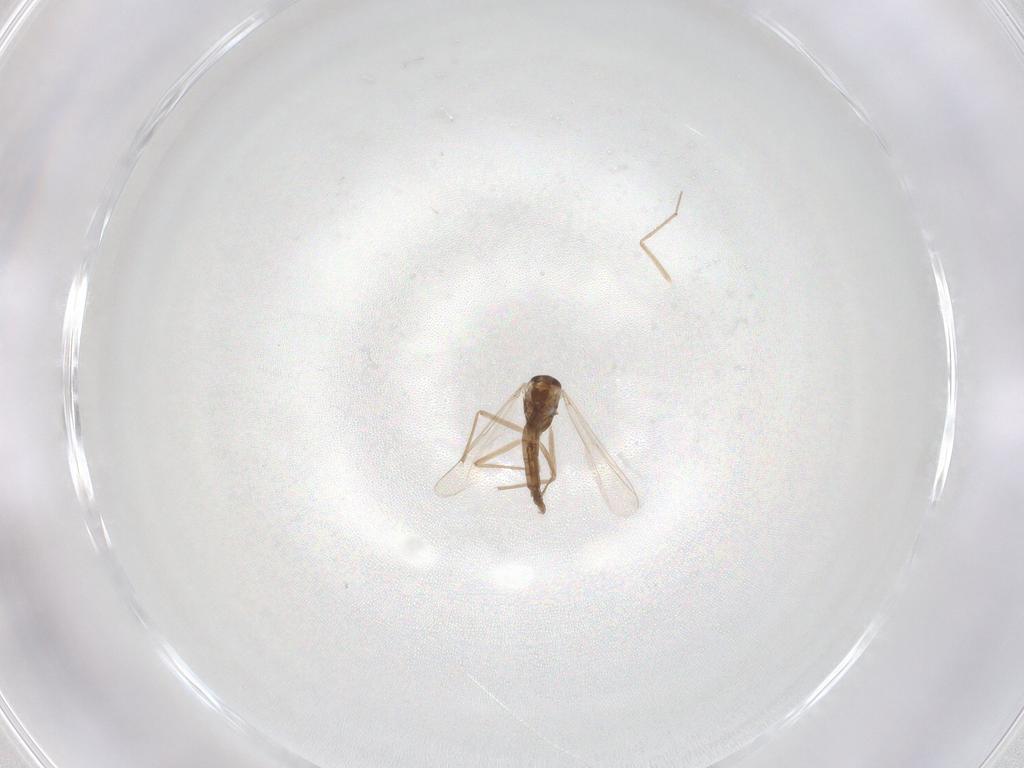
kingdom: Animalia
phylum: Arthropoda
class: Insecta
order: Diptera
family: Chironomidae
